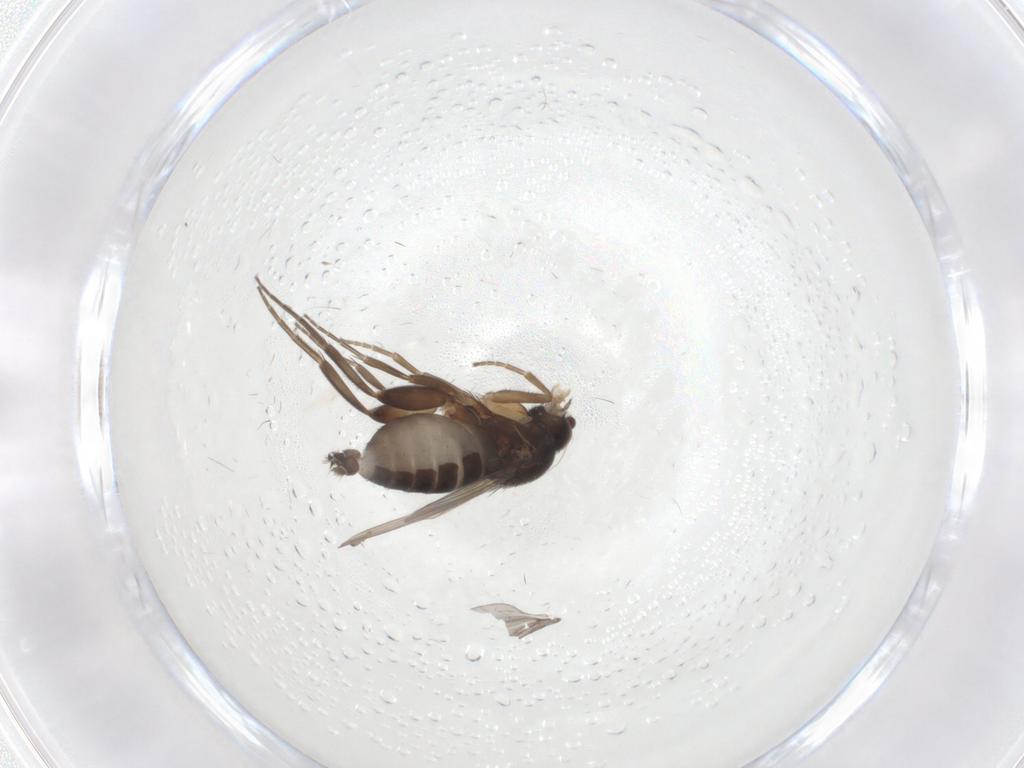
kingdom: Animalia
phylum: Arthropoda
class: Insecta
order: Diptera
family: Phoridae
